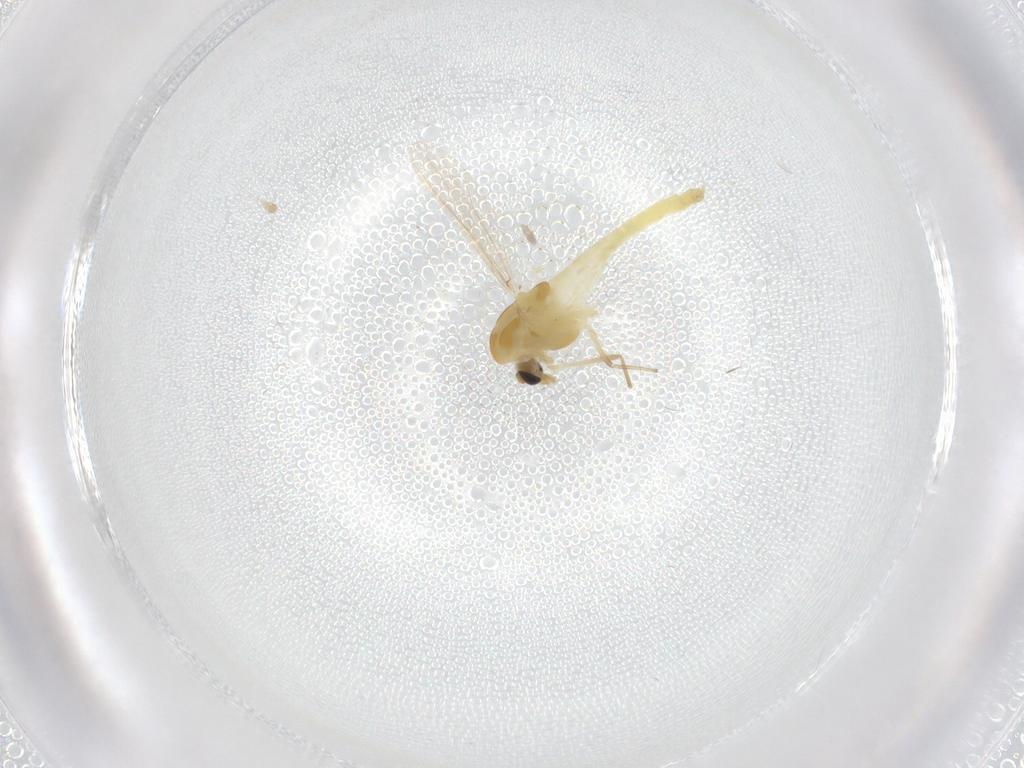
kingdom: Animalia
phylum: Arthropoda
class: Insecta
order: Diptera
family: Chironomidae
